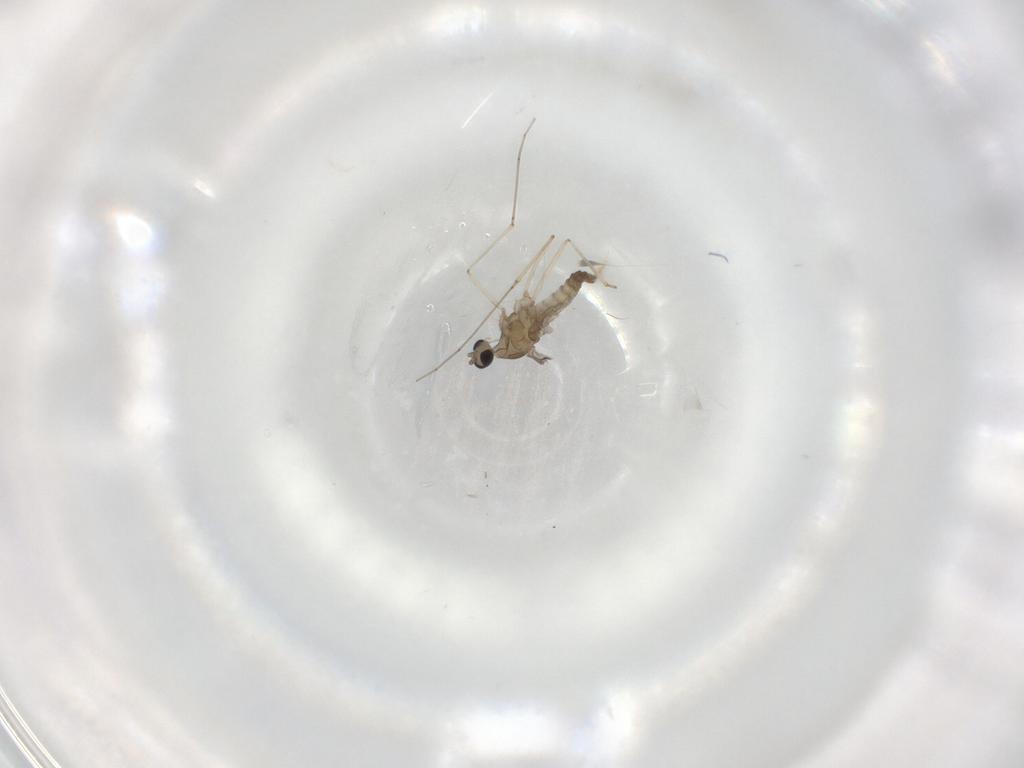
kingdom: Animalia
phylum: Arthropoda
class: Insecta
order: Diptera
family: Cecidomyiidae
